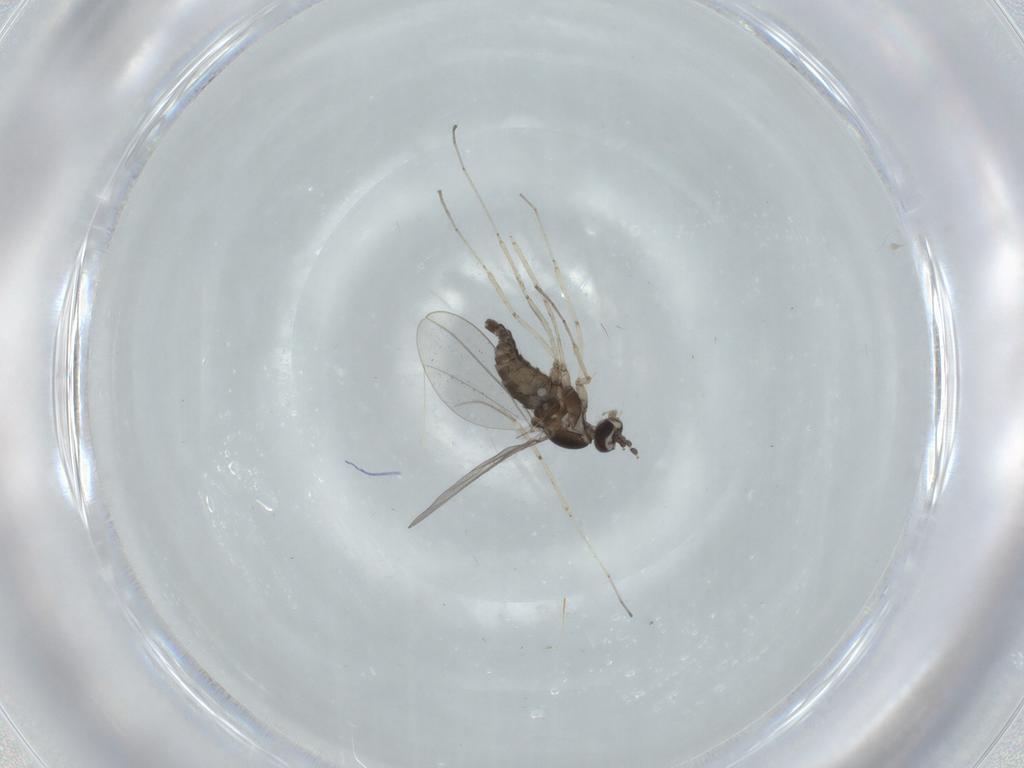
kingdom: Animalia
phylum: Arthropoda
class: Insecta
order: Diptera
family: Cecidomyiidae
